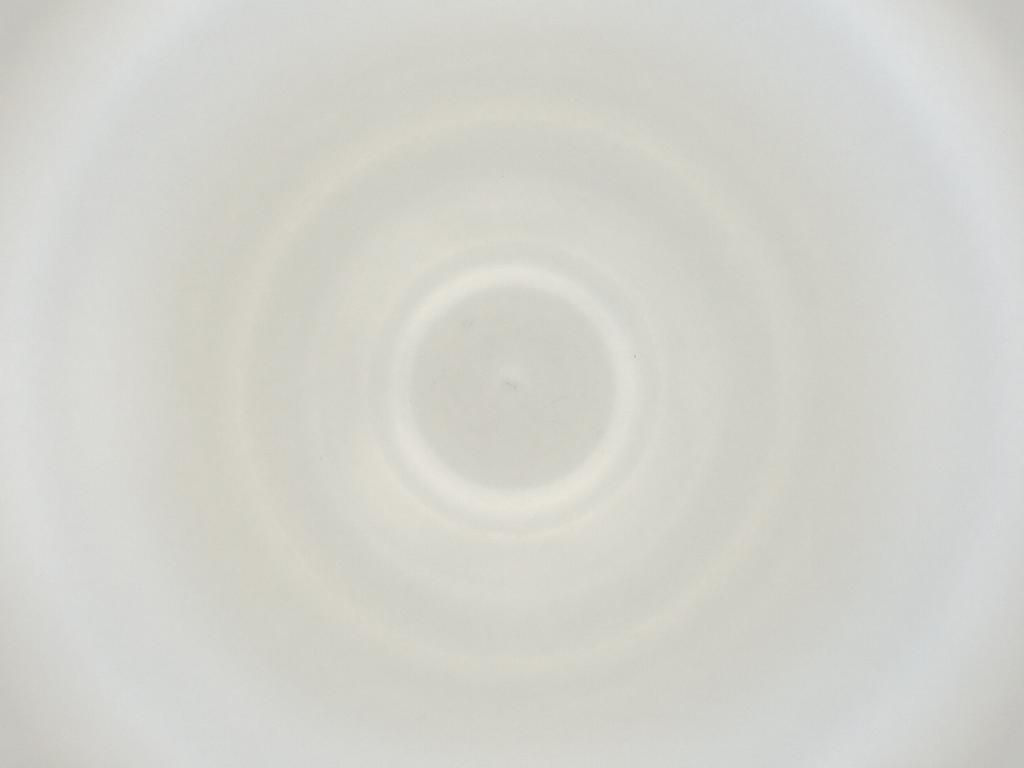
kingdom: Animalia
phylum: Arthropoda
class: Insecta
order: Diptera
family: Cecidomyiidae
